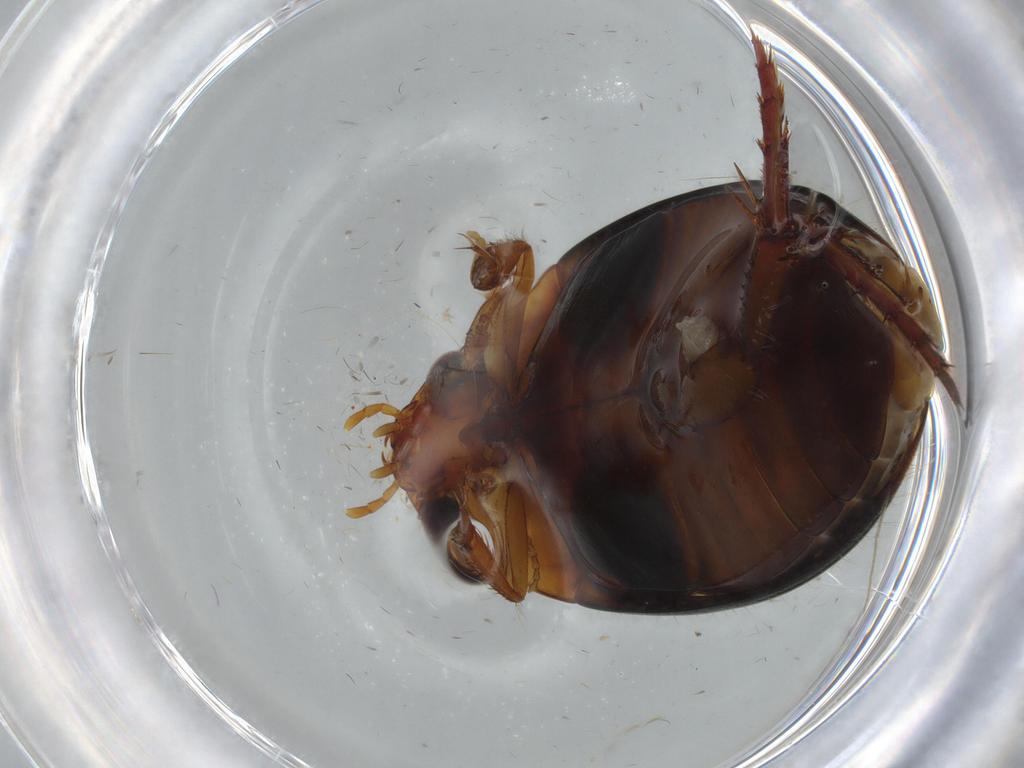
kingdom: Animalia
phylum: Arthropoda
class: Insecta
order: Coleoptera
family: Dytiscidae
